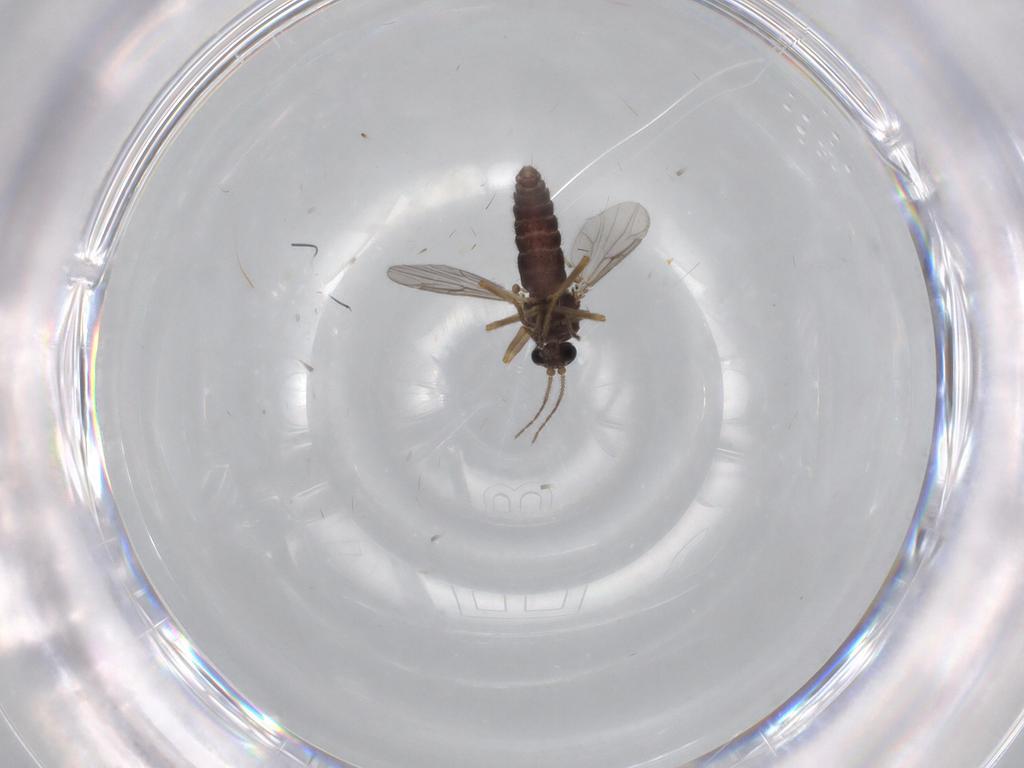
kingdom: Animalia
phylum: Arthropoda
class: Insecta
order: Diptera
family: Ceratopogonidae
